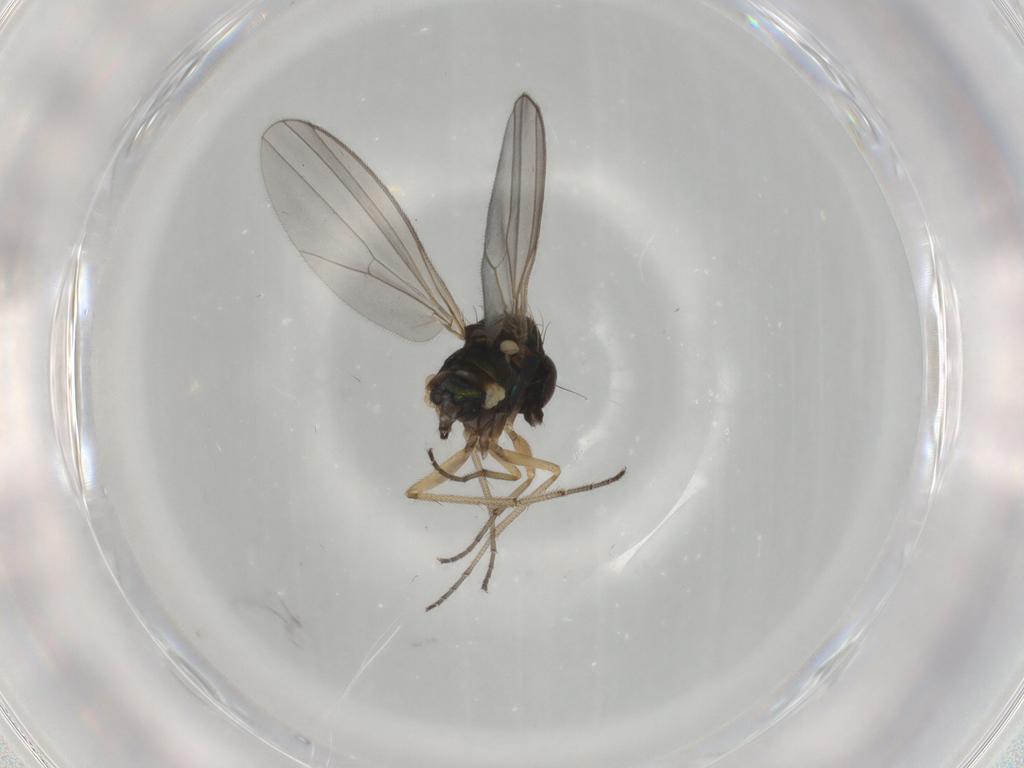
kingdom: Animalia
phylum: Arthropoda
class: Insecta
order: Diptera
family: Dolichopodidae
